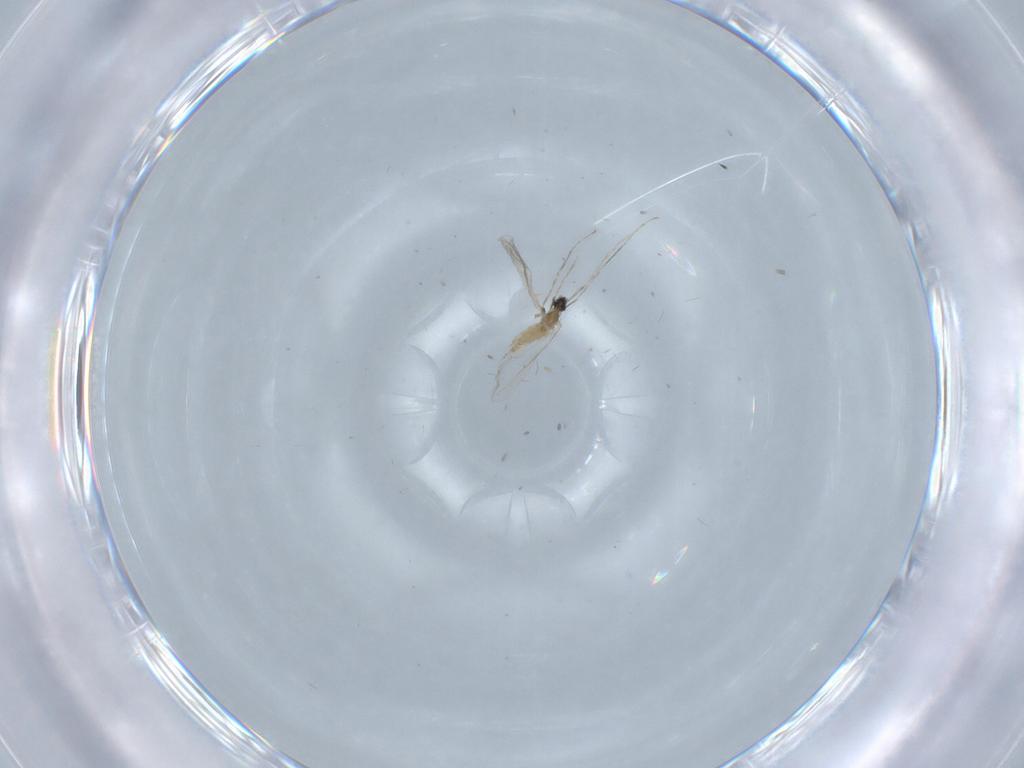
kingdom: Animalia
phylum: Arthropoda
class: Insecta
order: Diptera
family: Cecidomyiidae
